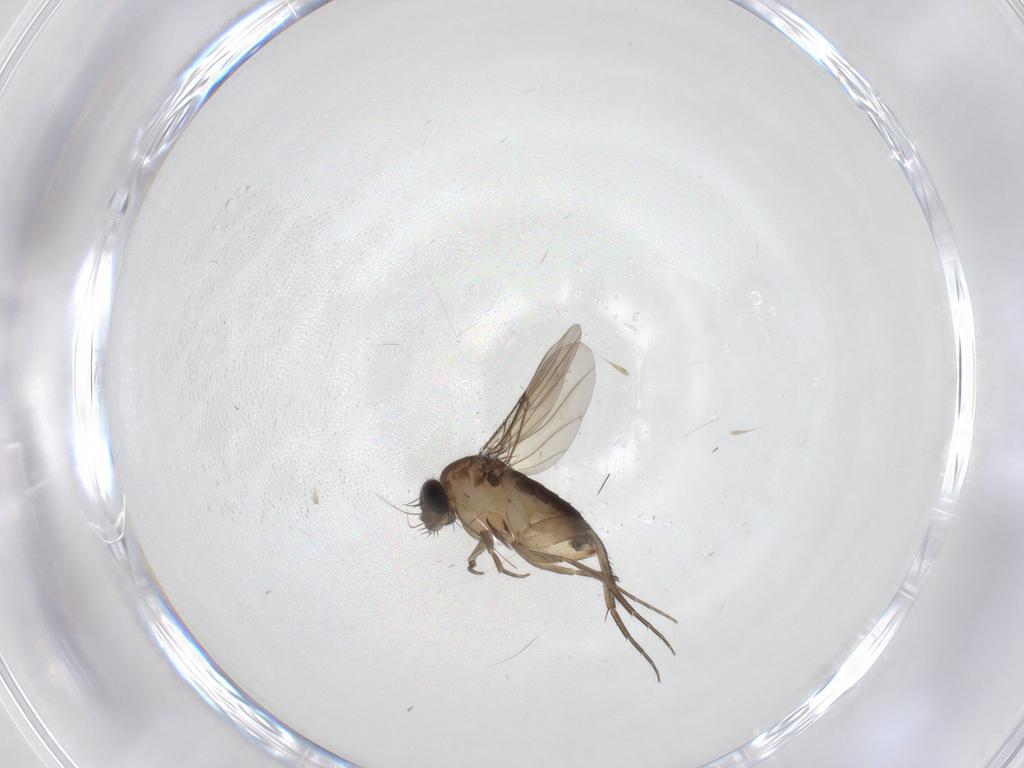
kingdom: Animalia
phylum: Arthropoda
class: Insecta
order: Diptera
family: Phoridae
